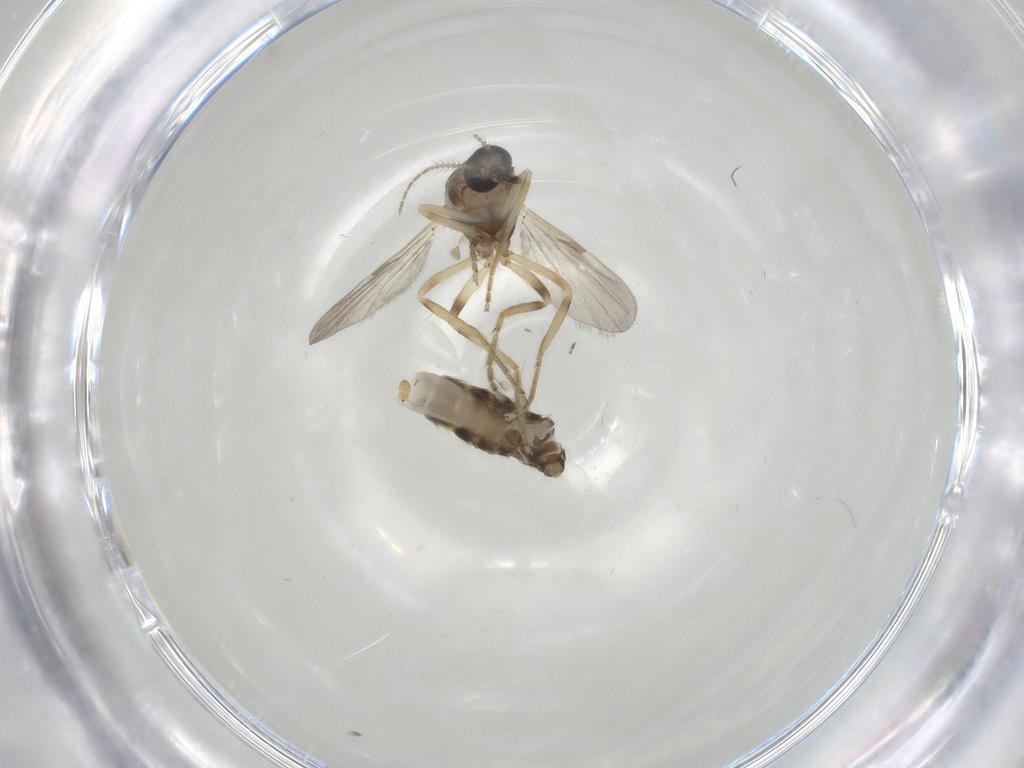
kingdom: Animalia
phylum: Arthropoda
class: Insecta
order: Diptera
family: Ceratopogonidae
